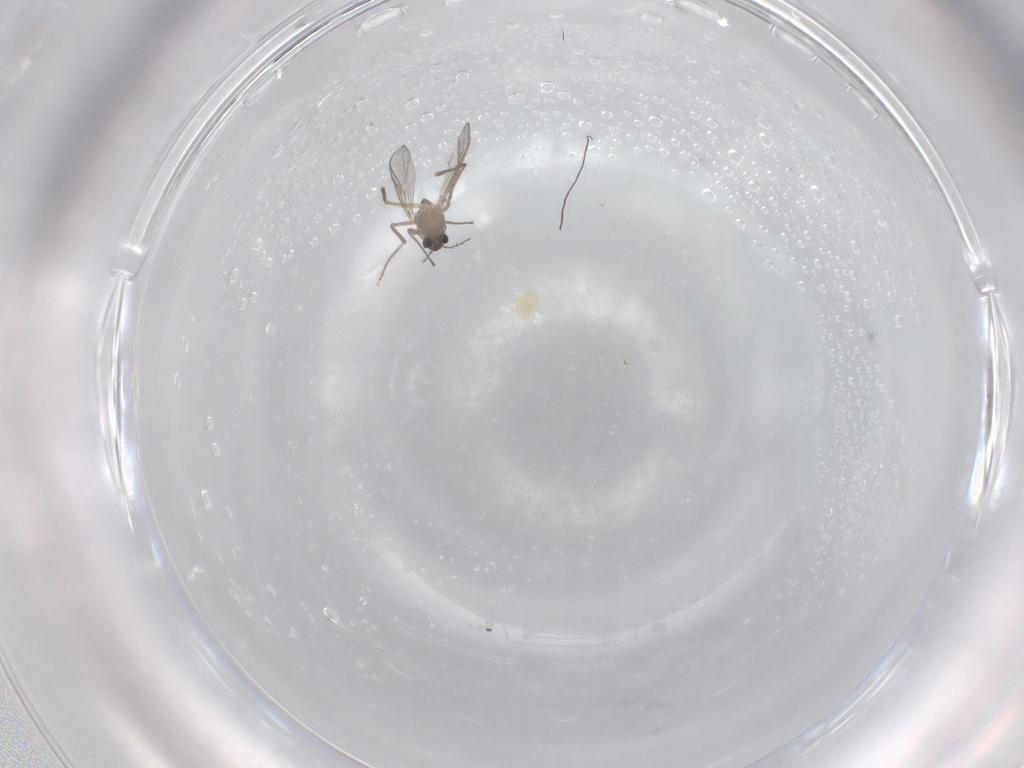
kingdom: Animalia
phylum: Arthropoda
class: Insecta
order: Diptera
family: Chironomidae
